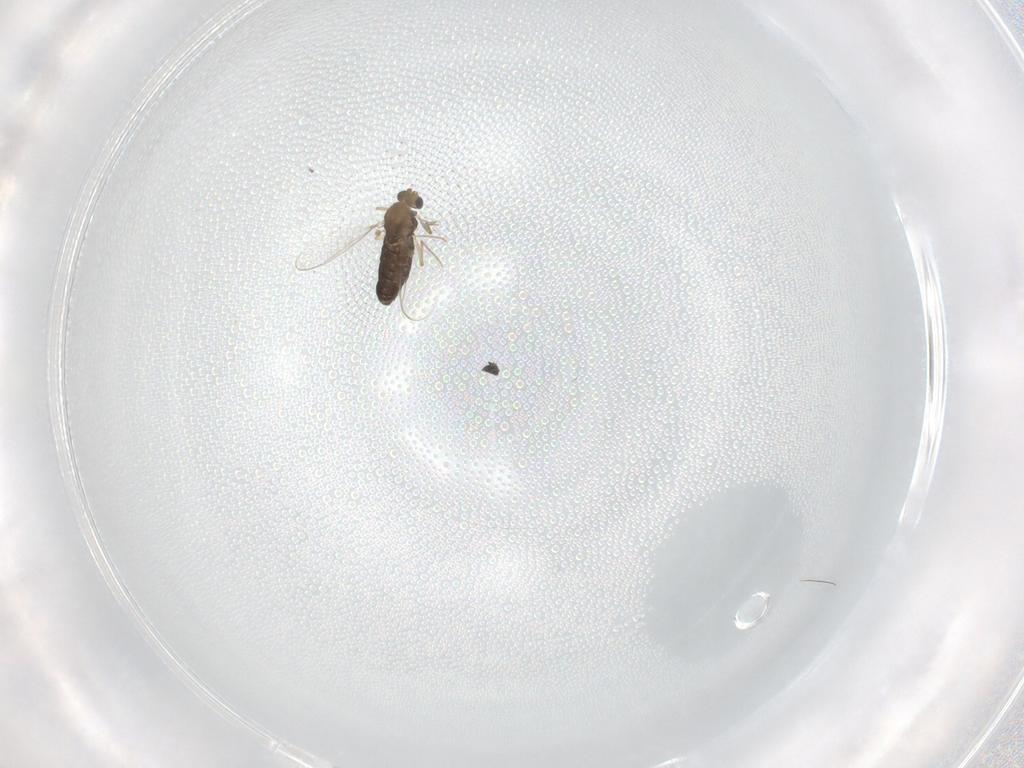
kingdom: Animalia
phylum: Arthropoda
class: Insecta
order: Diptera
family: Chironomidae
